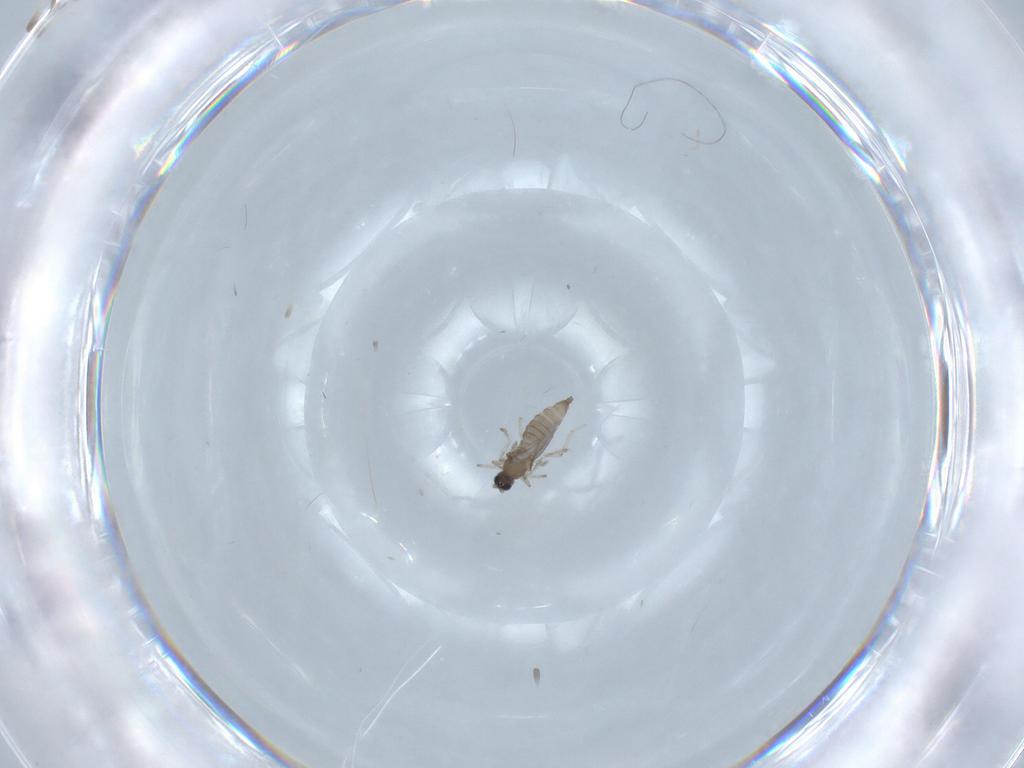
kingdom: Animalia
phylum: Arthropoda
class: Insecta
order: Diptera
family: Cecidomyiidae
